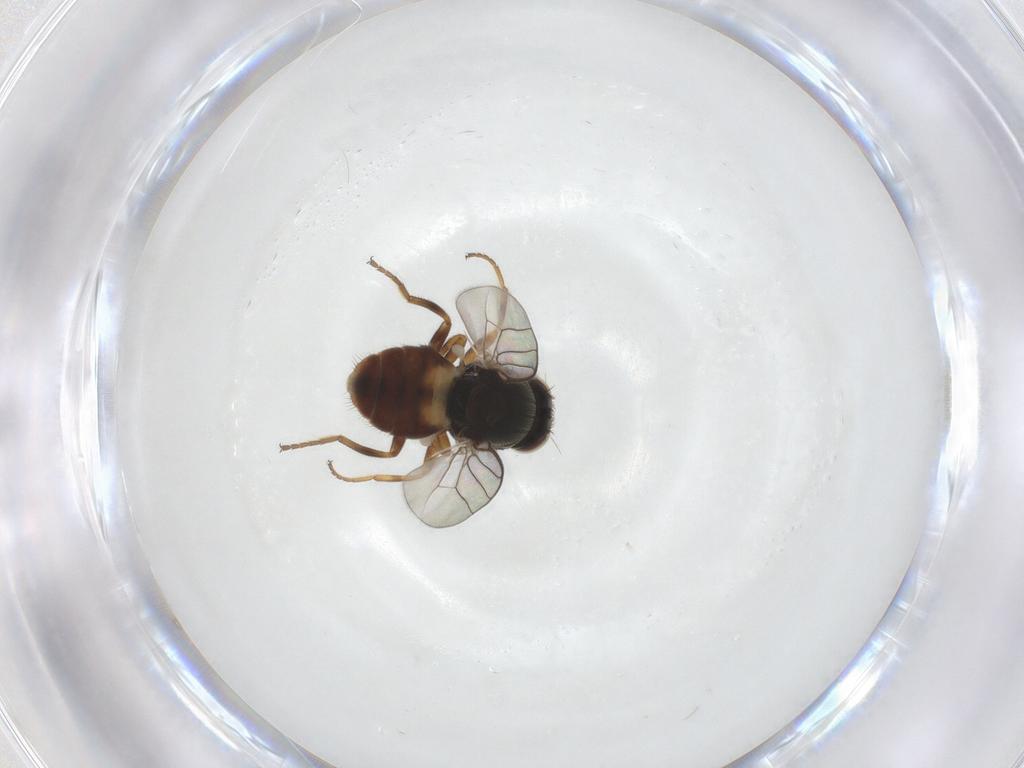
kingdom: Animalia
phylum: Arthropoda
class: Insecta
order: Diptera
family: Chloropidae
